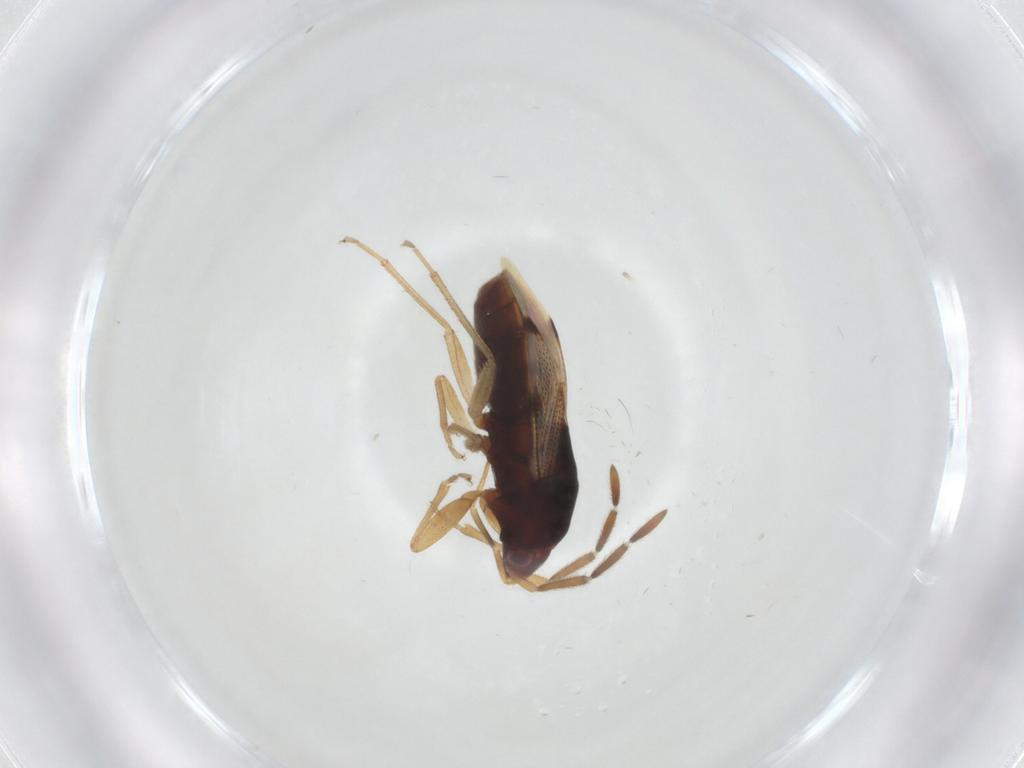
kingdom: Animalia
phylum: Arthropoda
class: Insecta
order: Hemiptera
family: Rhyparochromidae
